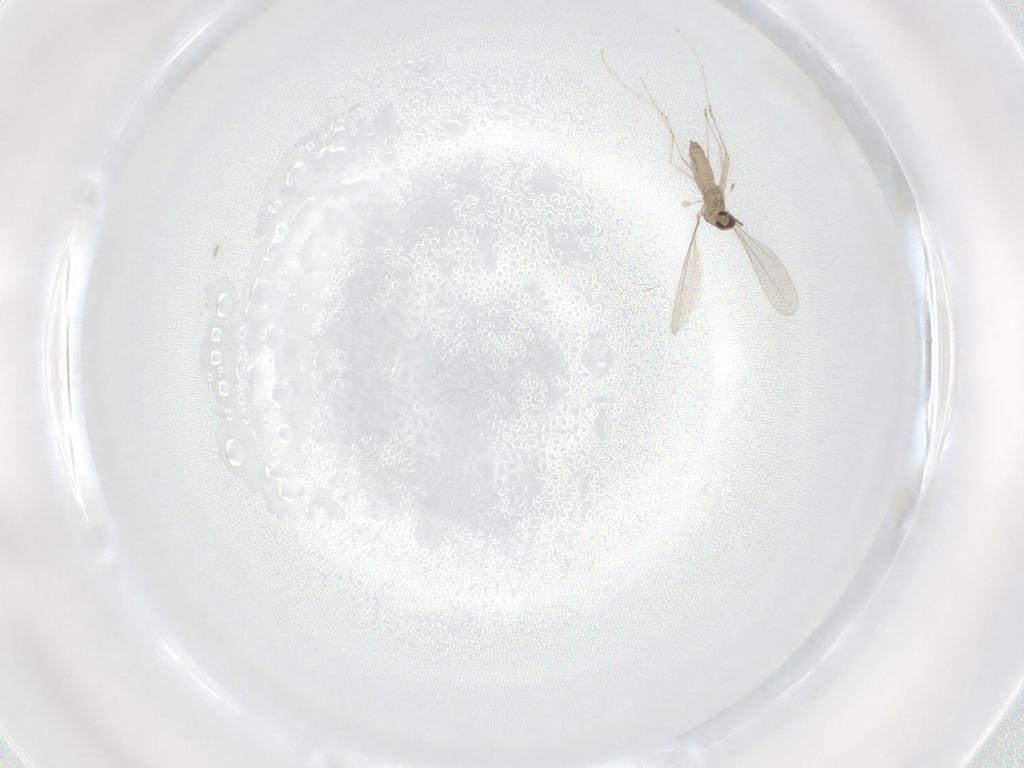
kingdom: Animalia
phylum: Arthropoda
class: Insecta
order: Diptera
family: Cecidomyiidae
